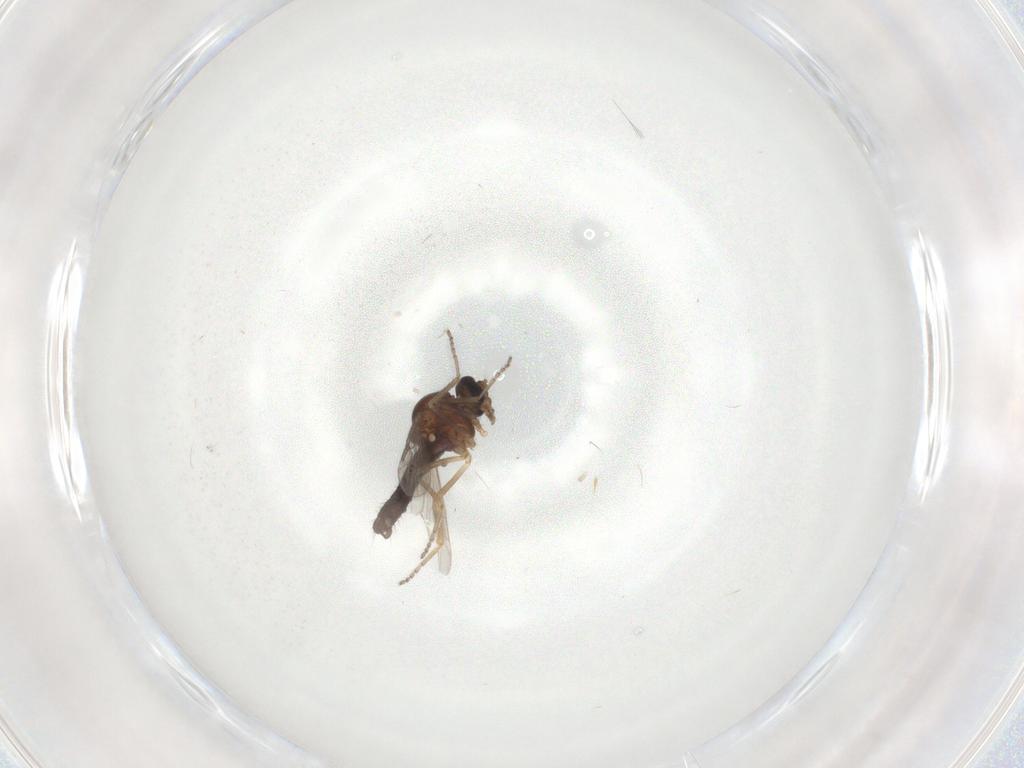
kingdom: Animalia
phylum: Arthropoda
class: Insecta
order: Diptera
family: Ceratopogonidae
